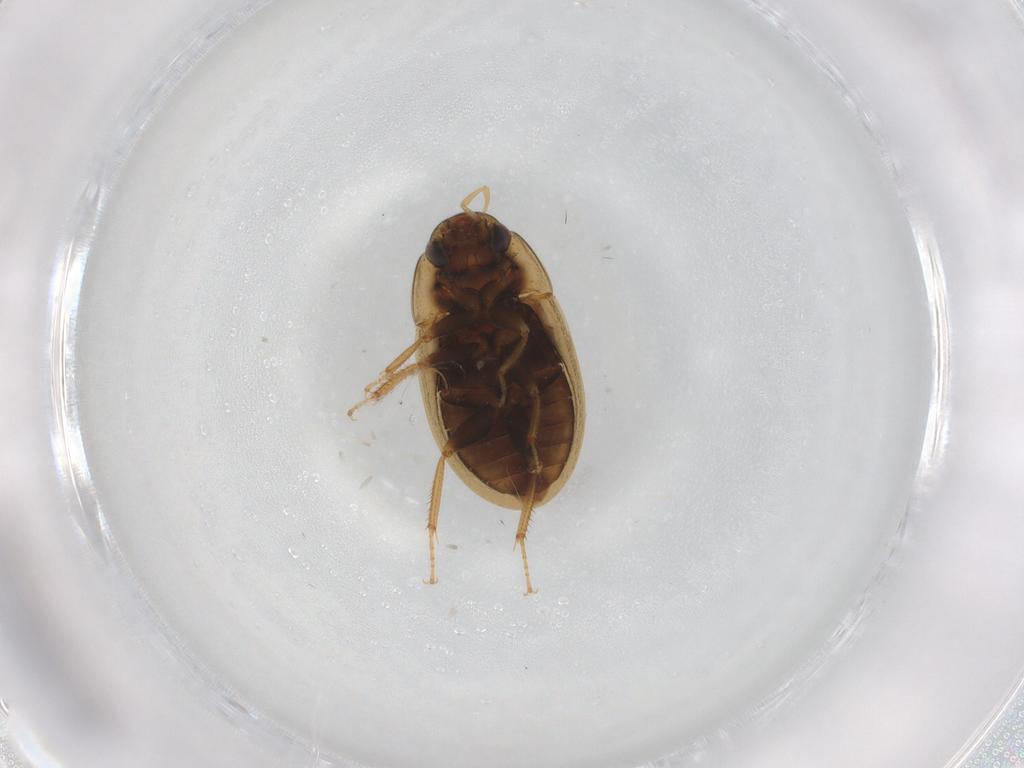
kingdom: Animalia
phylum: Arthropoda
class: Insecta
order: Coleoptera
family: Hydrophilidae
